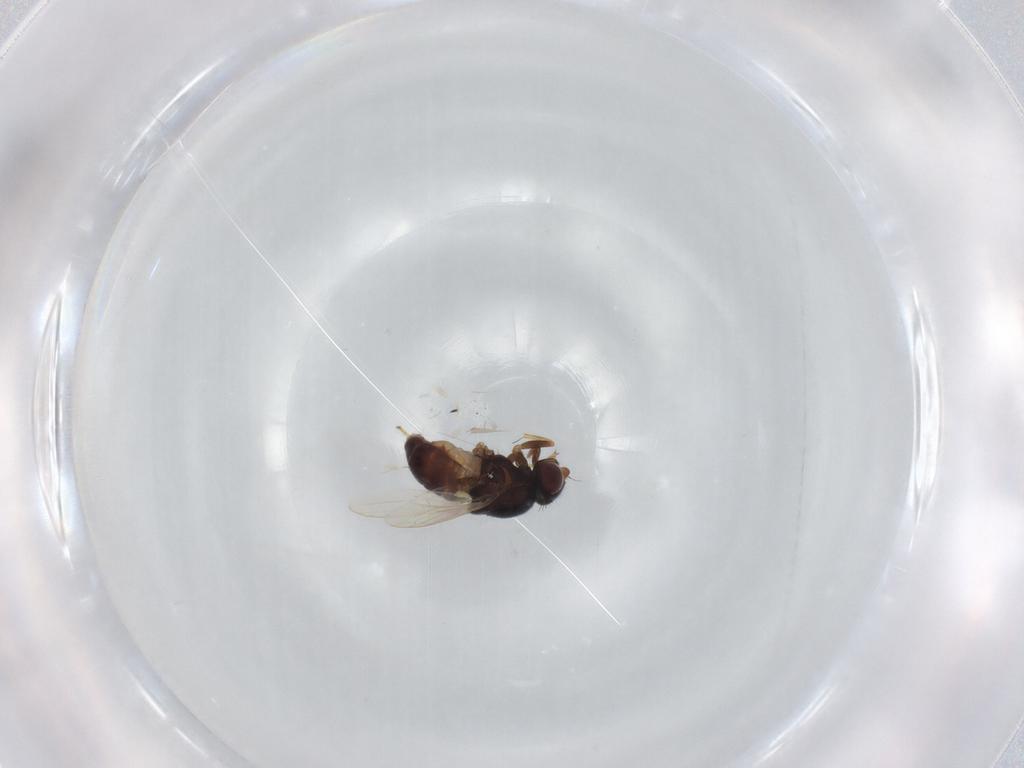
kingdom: Animalia
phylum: Arthropoda
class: Insecta
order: Diptera
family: Chloropidae
